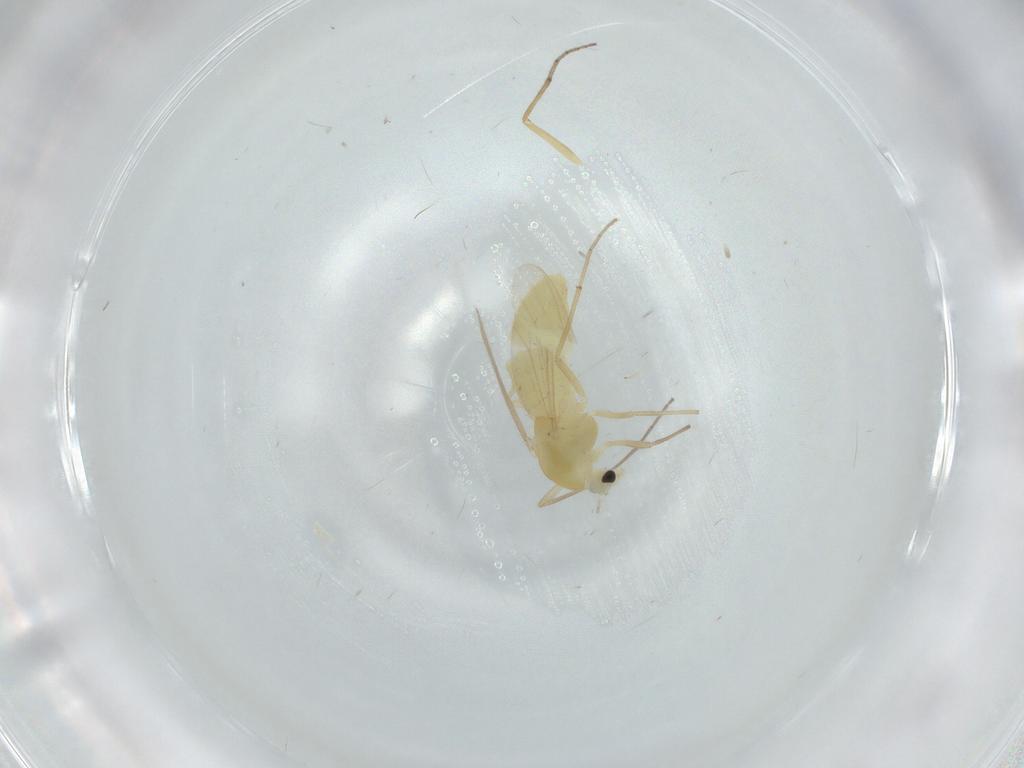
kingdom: Animalia
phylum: Arthropoda
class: Insecta
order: Diptera
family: Chironomidae
